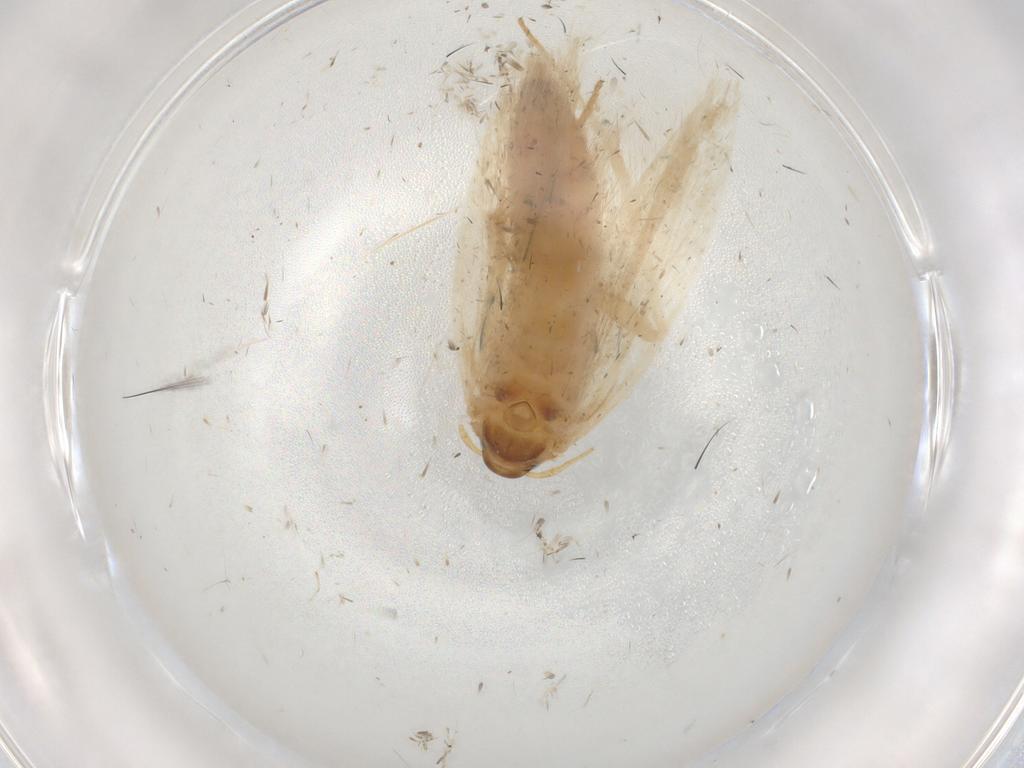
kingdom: Animalia
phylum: Arthropoda
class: Insecta
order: Lepidoptera
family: Gelechiidae
